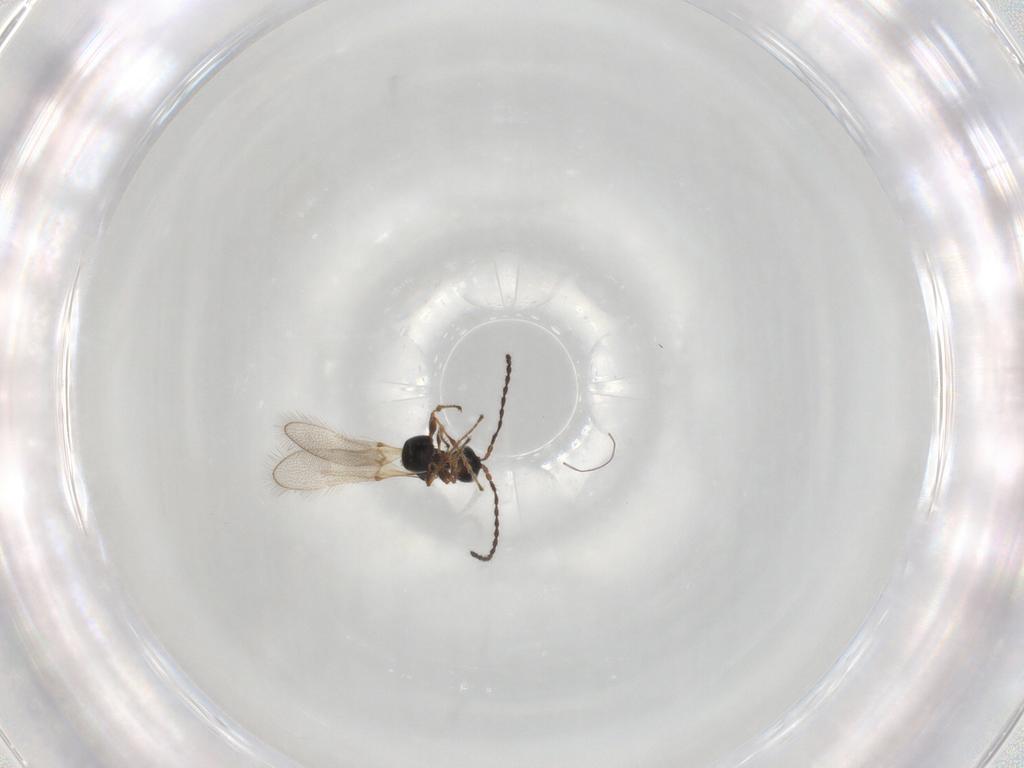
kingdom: Animalia
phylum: Arthropoda
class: Insecta
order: Hymenoptera
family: Diapriidae
